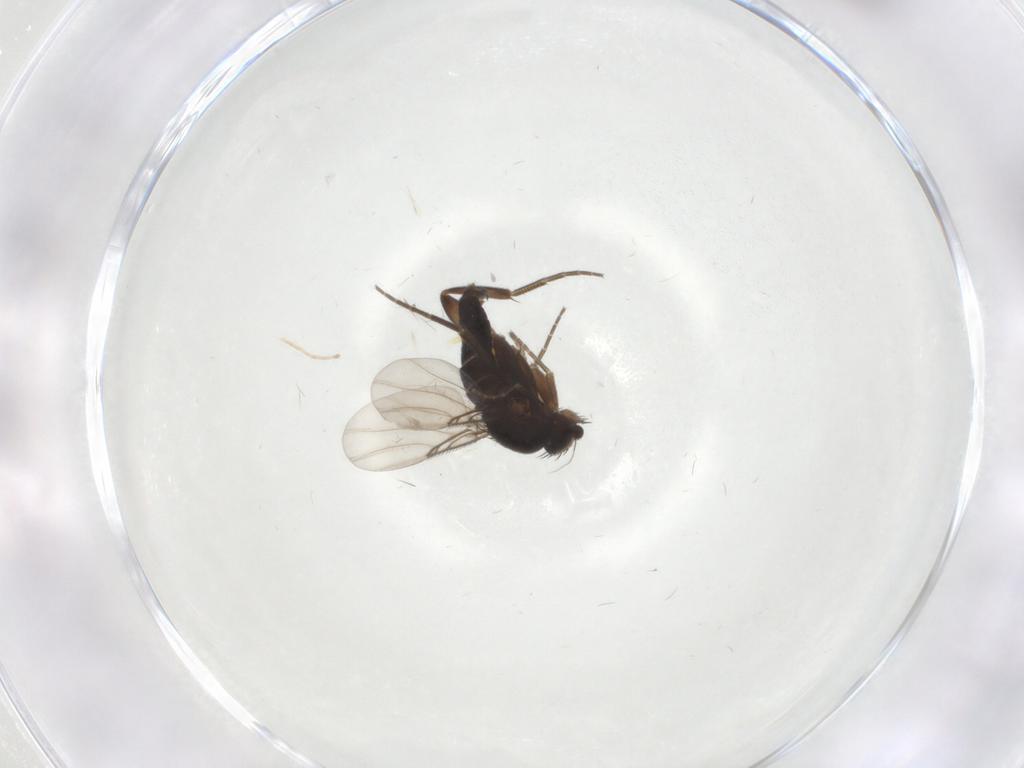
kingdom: Animalia
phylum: Arthropoda
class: Insecta
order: Diptera
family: Phoridae
